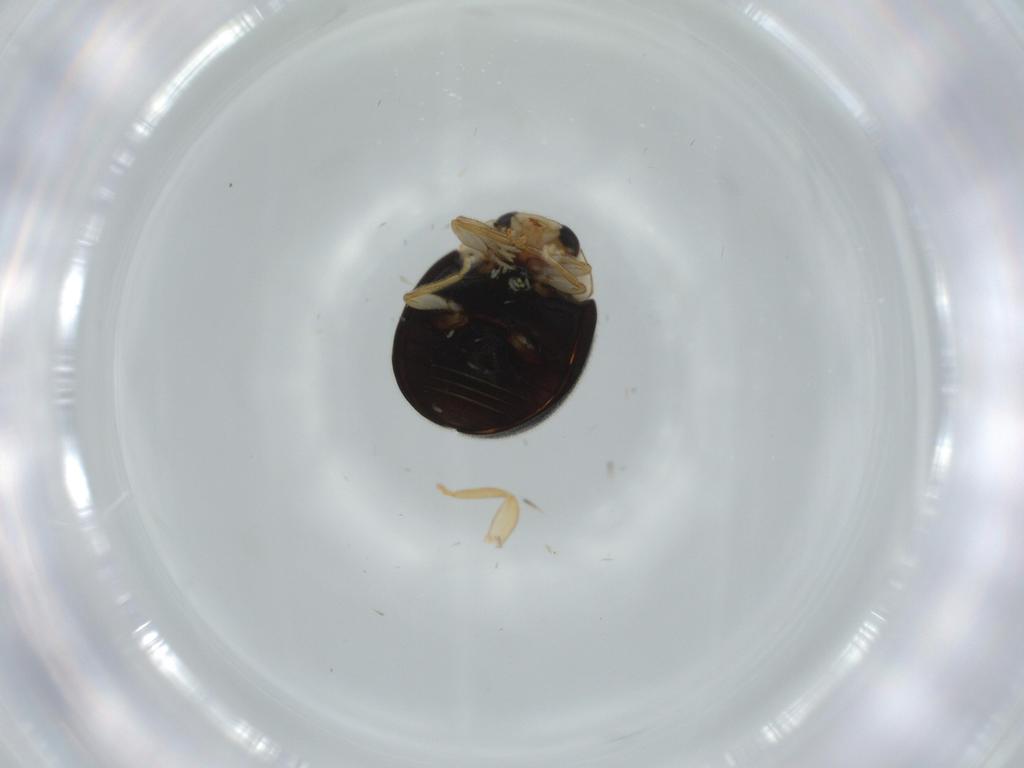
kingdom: Animalia
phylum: Arthropoda
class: Insecta
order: Coleoptera
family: Coccinellidae
